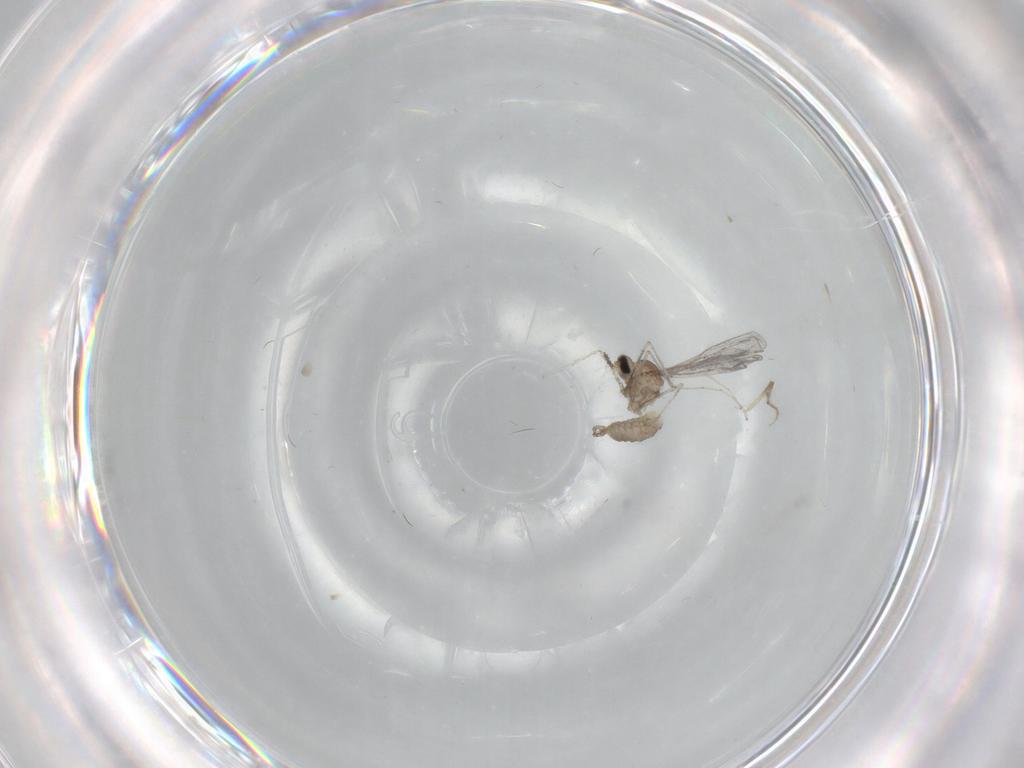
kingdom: Animalia
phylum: Arthropoda
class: Insecta
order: Diptera
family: Cecidomyiidae
